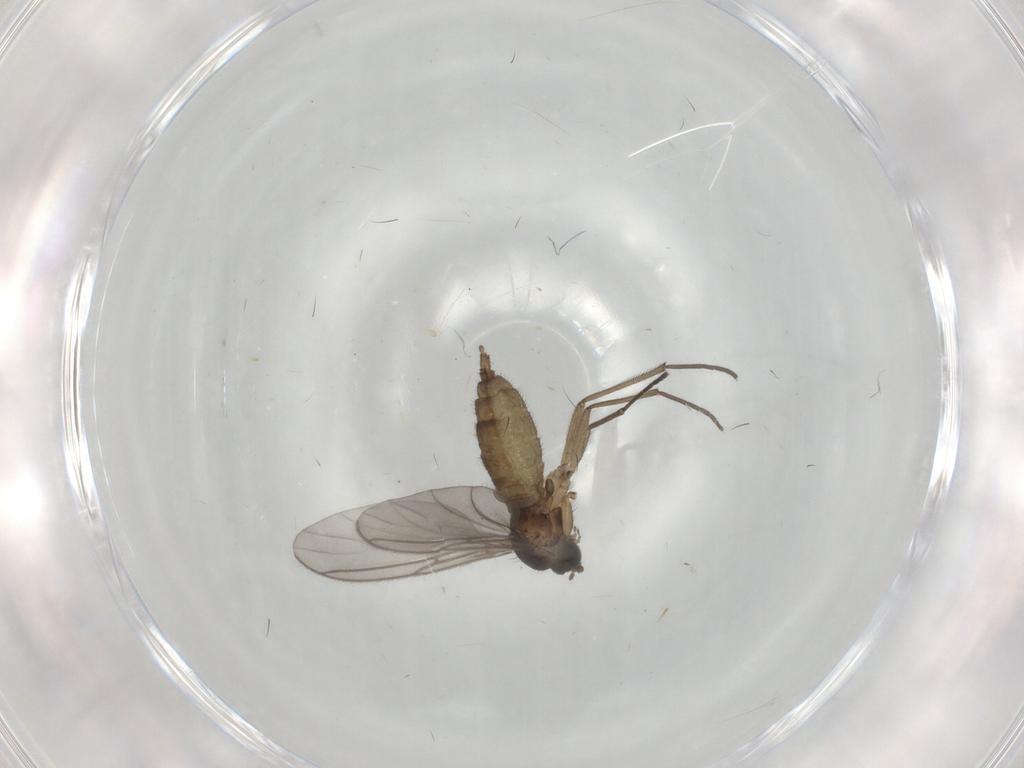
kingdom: Animalia
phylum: Arthropoda
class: Insecta
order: Diptera
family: Sciaridae
